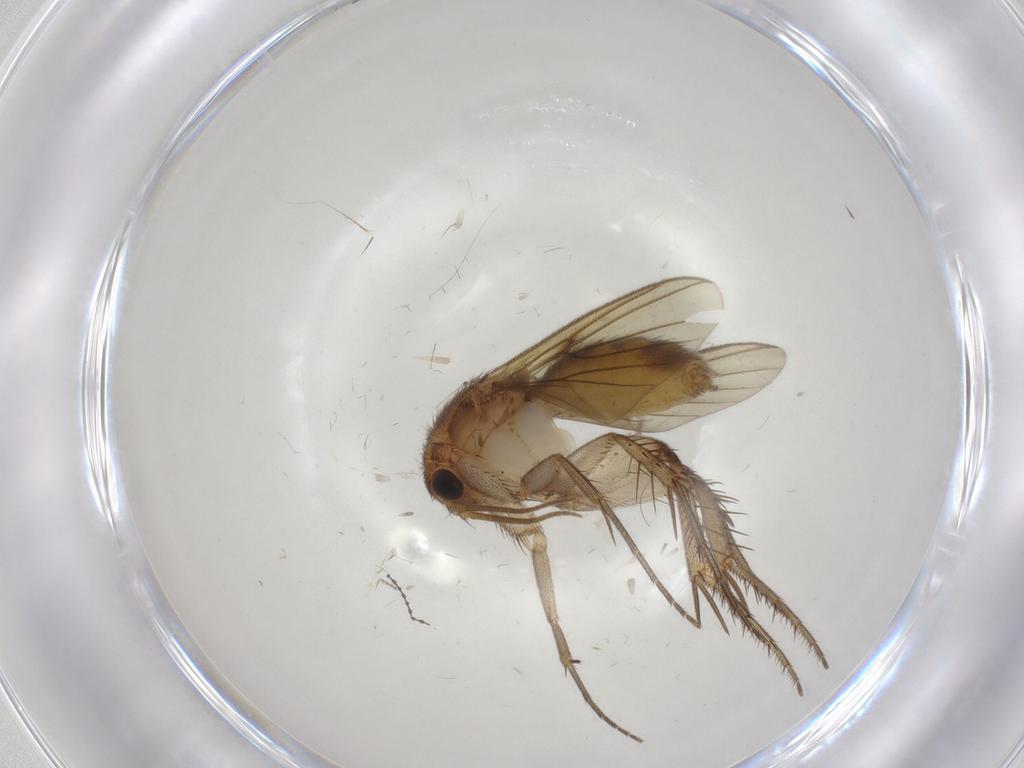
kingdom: Animalia
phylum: Arthropoda
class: Insecta
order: Diptera
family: Mycetophilidae
